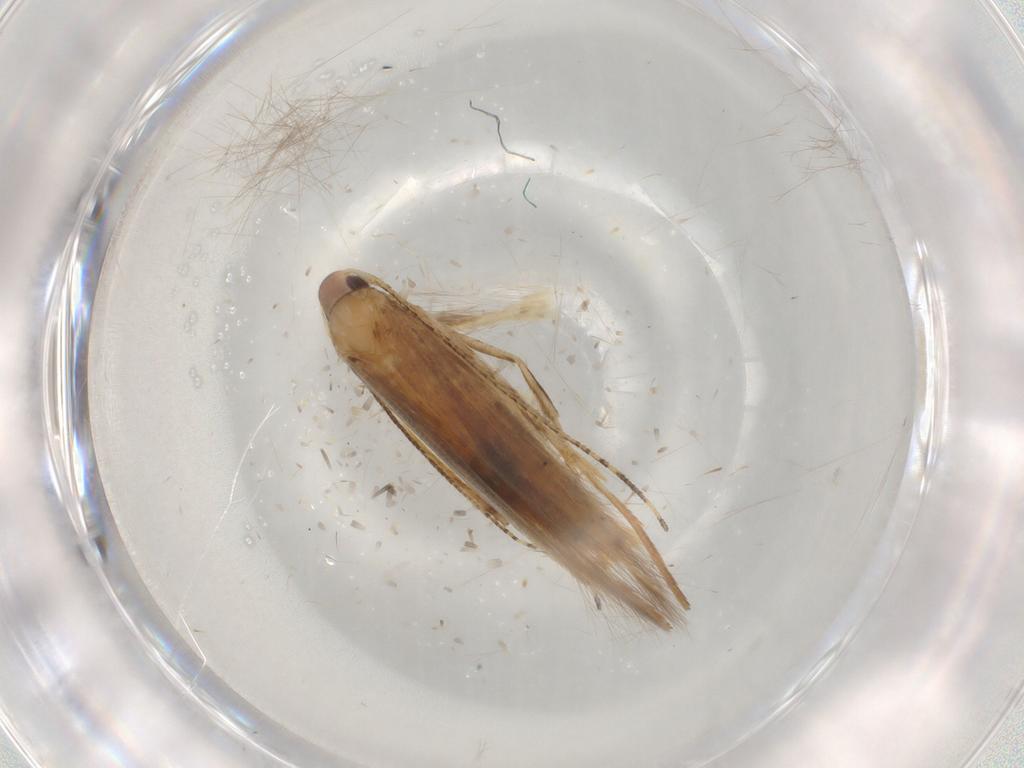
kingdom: Animalia
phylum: Arthropoda
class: Insecta
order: Lepidoptera
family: Cosmopterigidae
